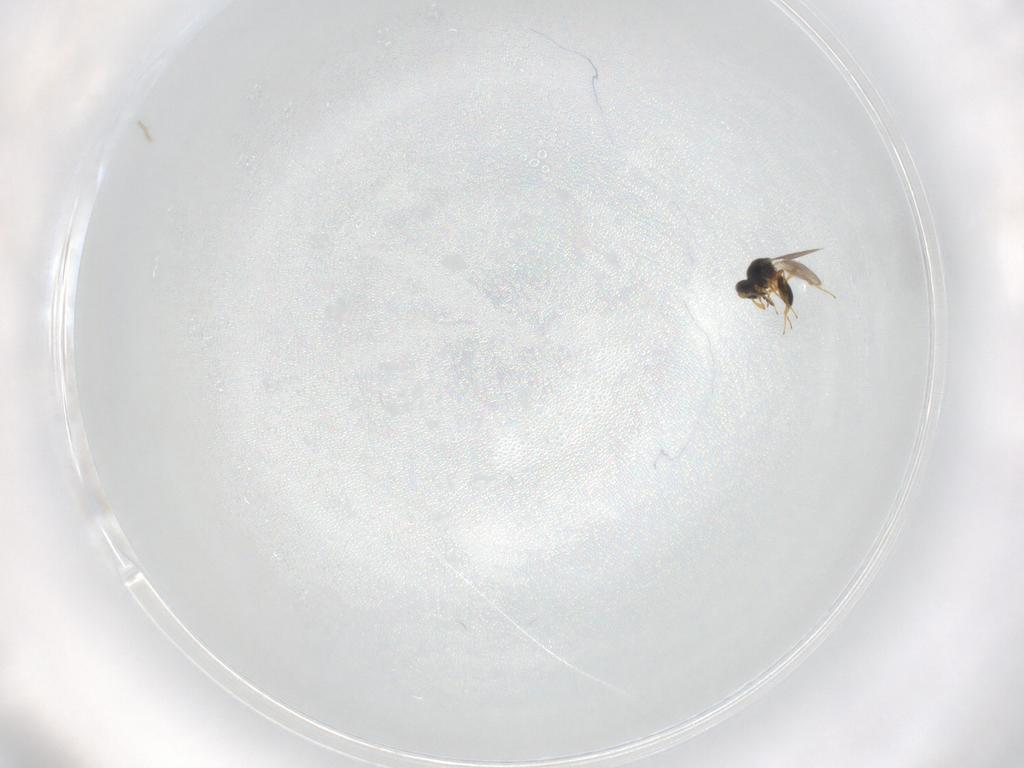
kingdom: Animalia
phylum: Arthropoda
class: Insecta
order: Hymenoptera
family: Platygastridae
